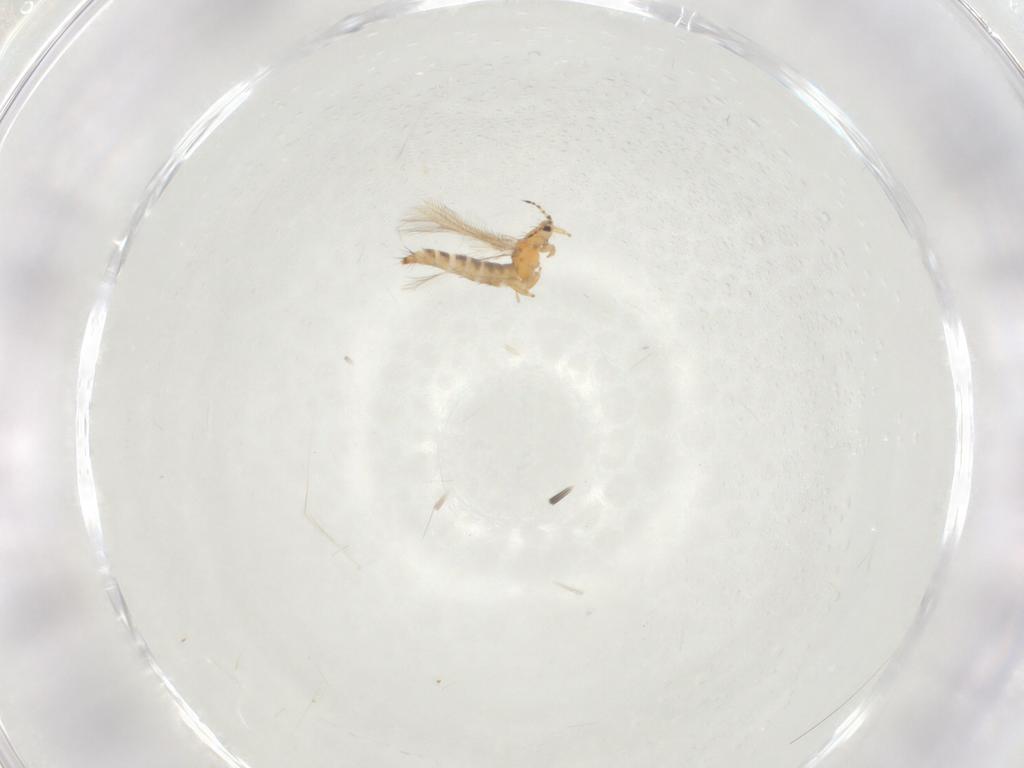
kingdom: Animalia
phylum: Arthropoda
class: Insecta
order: Thysanoptera
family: Thripidae
